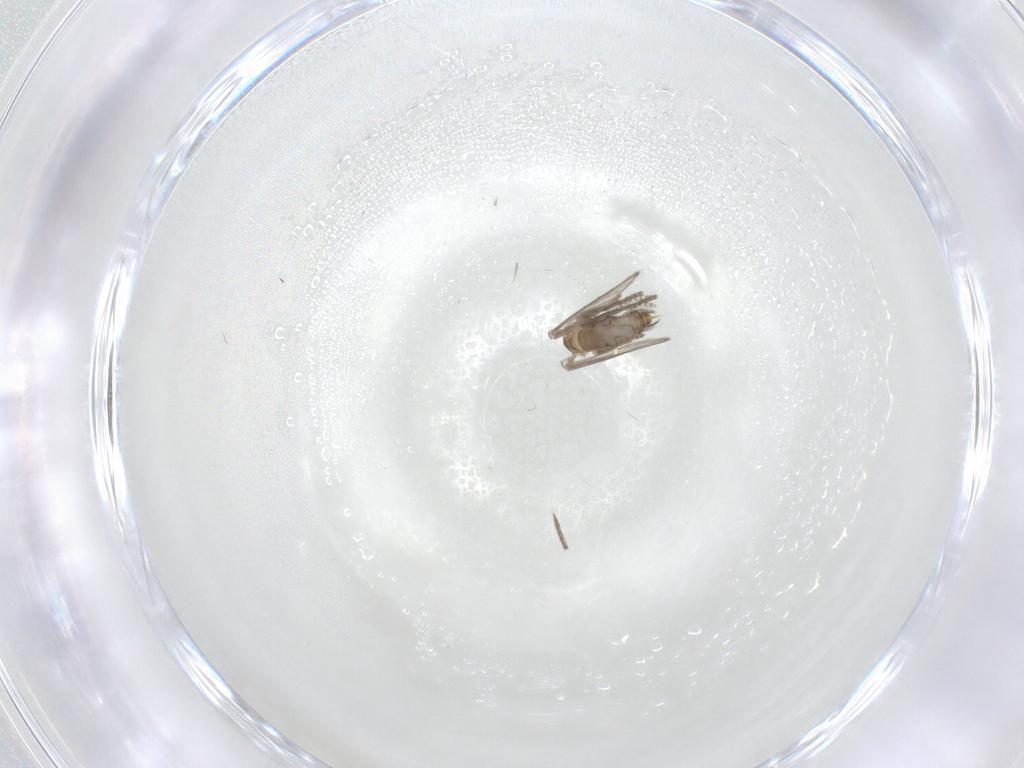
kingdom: Animalia
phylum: Arthropoda
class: Insecta
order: Diptera
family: Psychodidae
